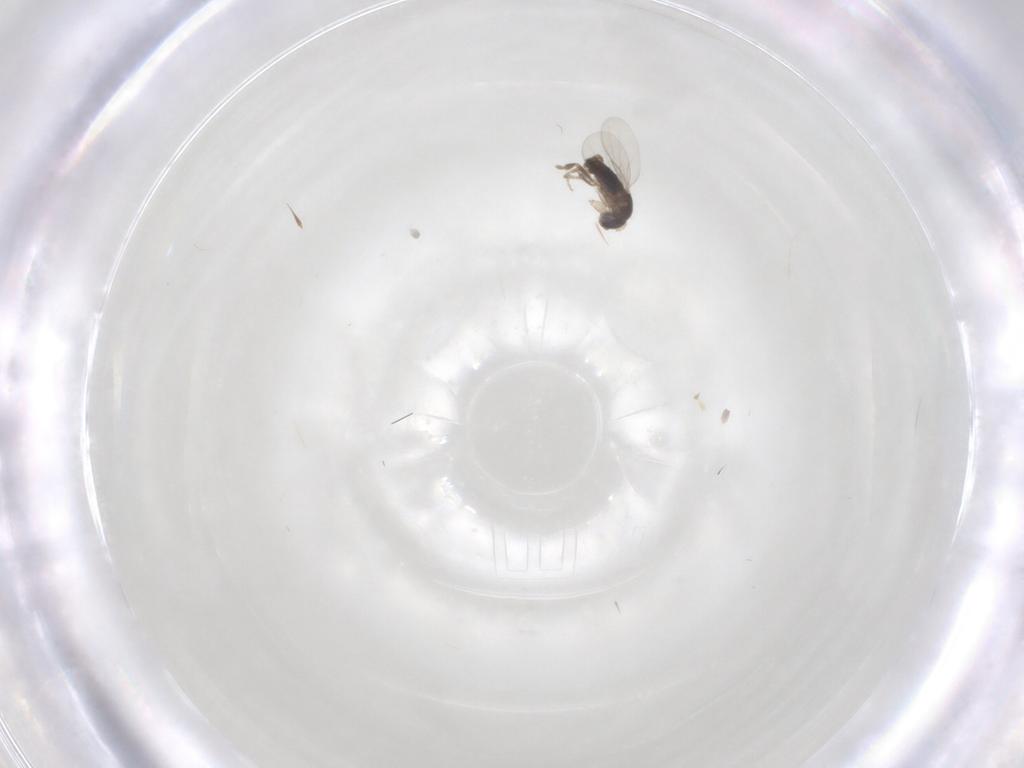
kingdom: Animalia
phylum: Arthropoda
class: Insecta
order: Diptera
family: Phoridae
